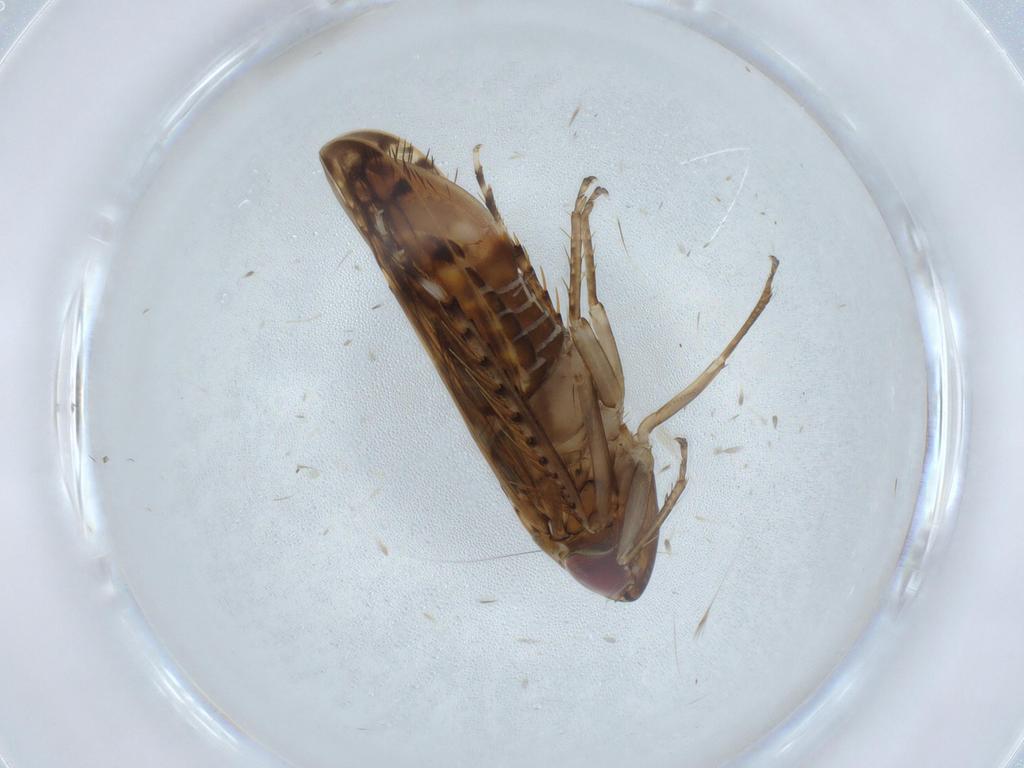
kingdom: Animalia
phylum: Arthropoda
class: Insecta
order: Hemiptera
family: Cicadellidae
